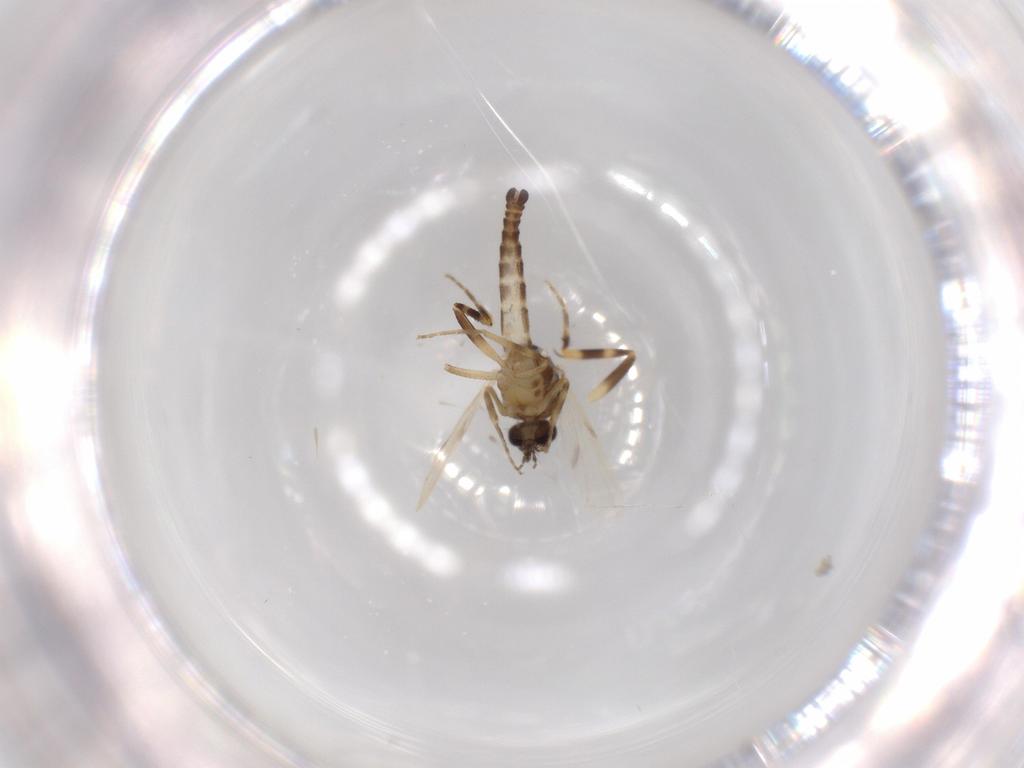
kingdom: Animalia
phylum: Arthropoda
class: Insecta
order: Diptera
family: Ceratopogonidae
